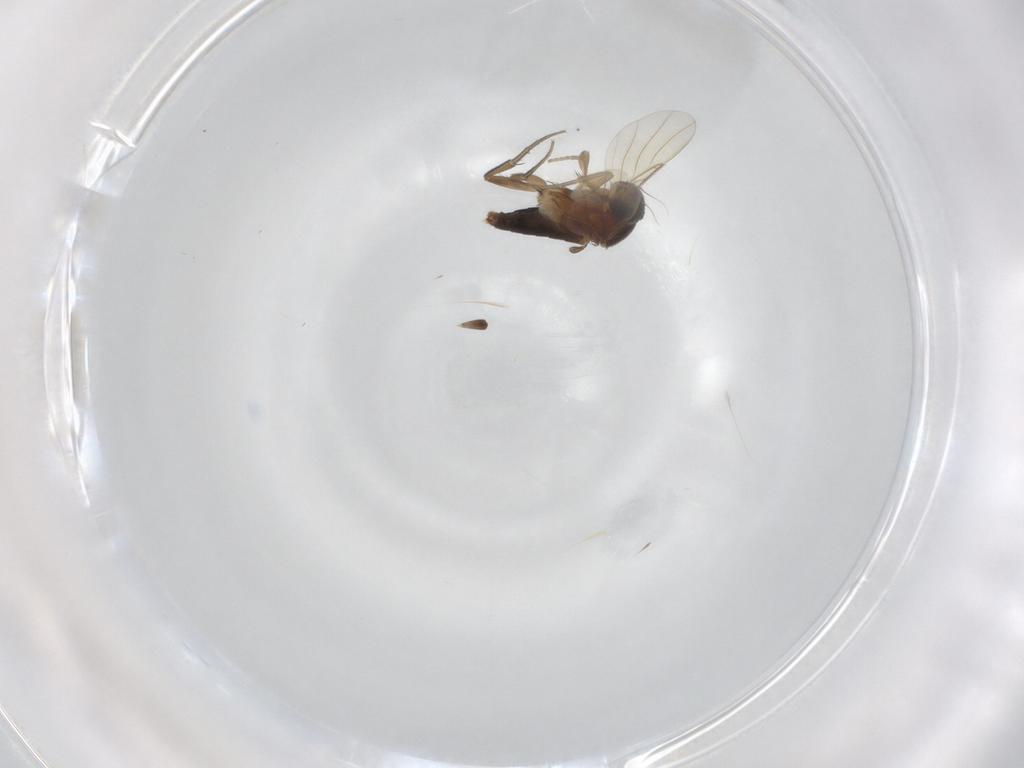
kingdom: Animalia
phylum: Arthropoda
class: Insecta
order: Diptera
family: Phoridae
